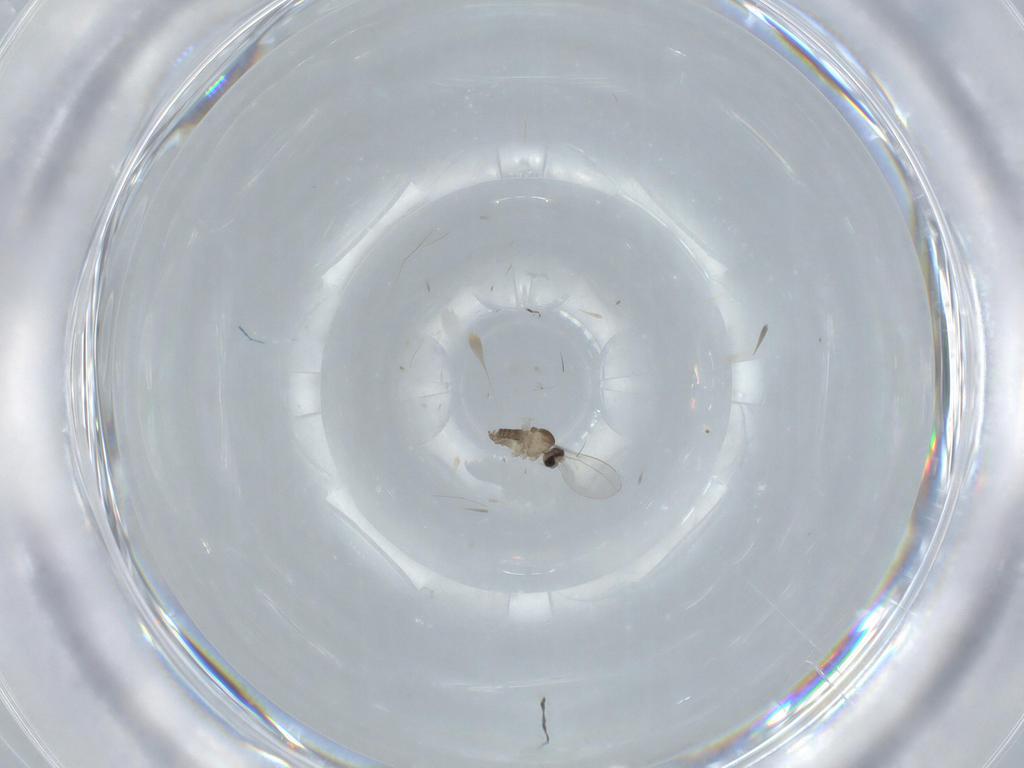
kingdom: Animalia
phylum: Arthropoda
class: Insecta
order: Diptera
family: Cecidomyiidae
